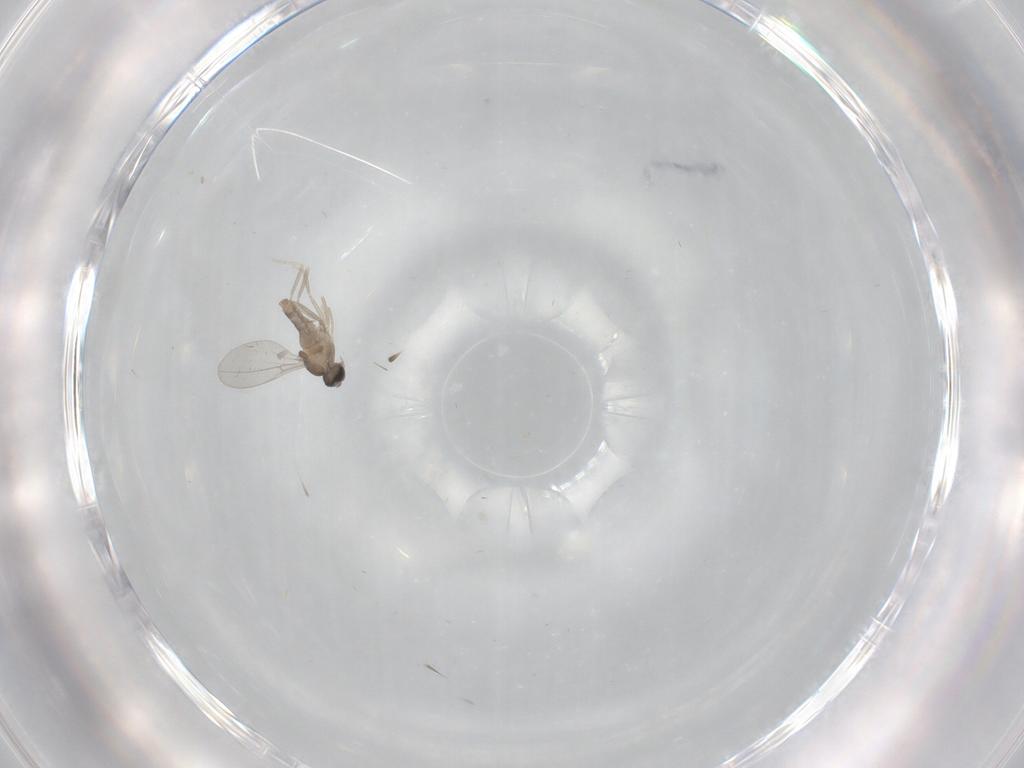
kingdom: Animalia
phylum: Arthropoda
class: Insecta
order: Diptera
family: Cecidomyiidae
